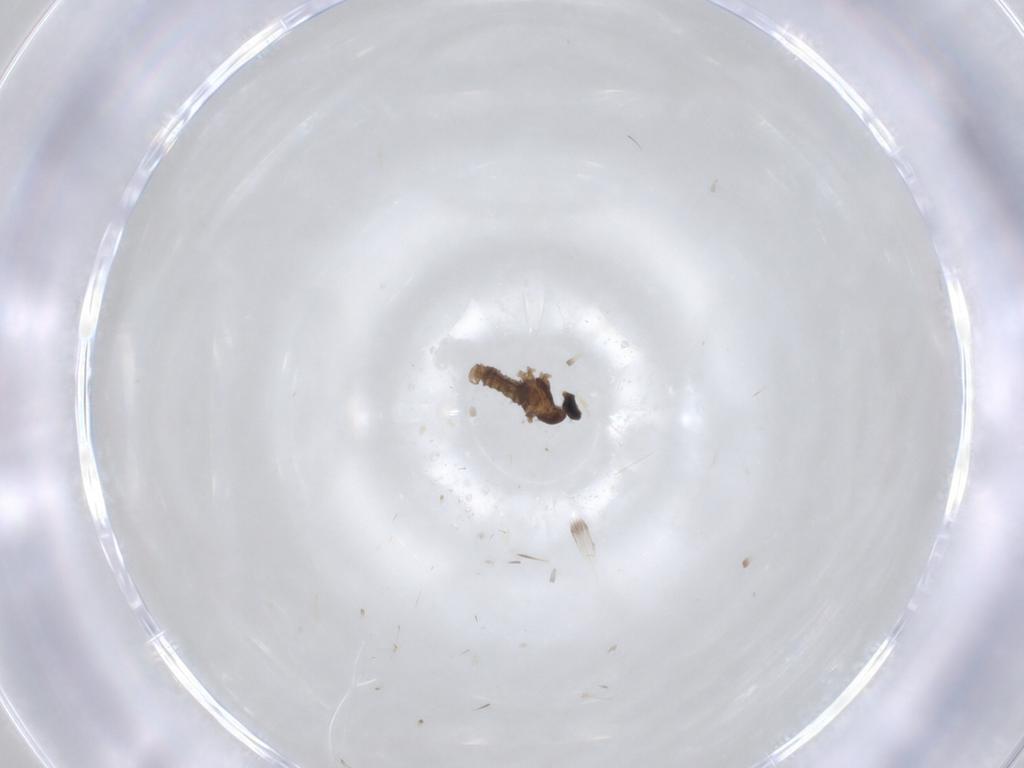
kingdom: Animalia
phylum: Arthropoda
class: Insecta
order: Diptera
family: Cecidomyiidae
